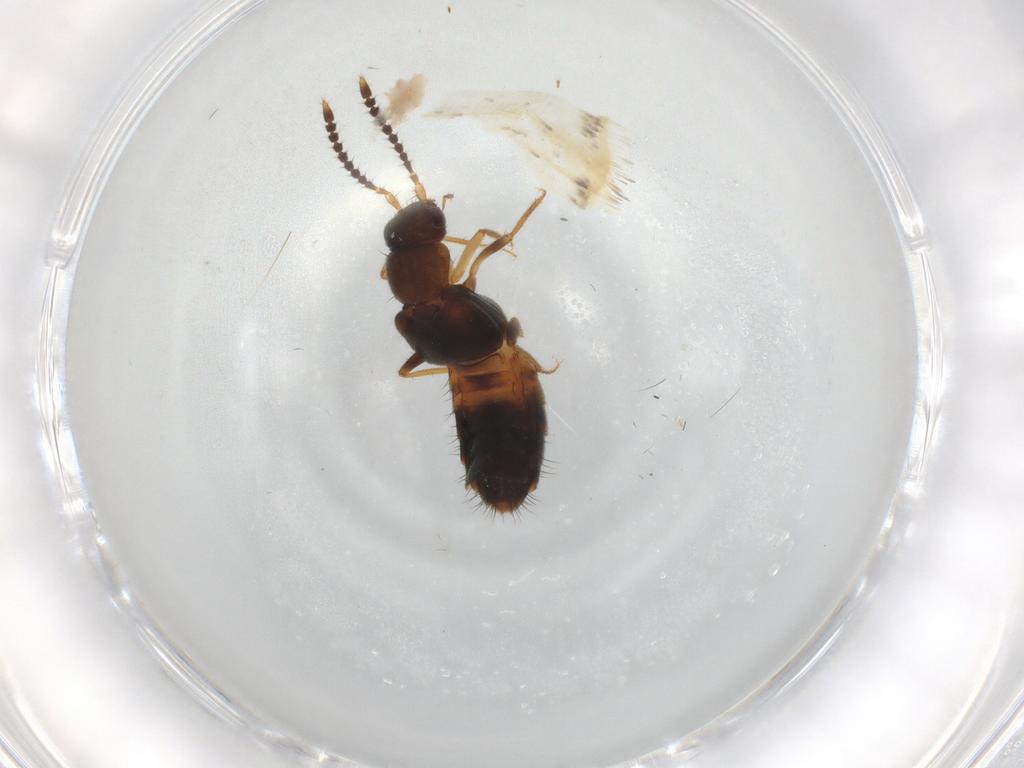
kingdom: Animalia
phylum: Arthropoda
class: Insecta
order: Coleoptera
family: Staphylinidae
